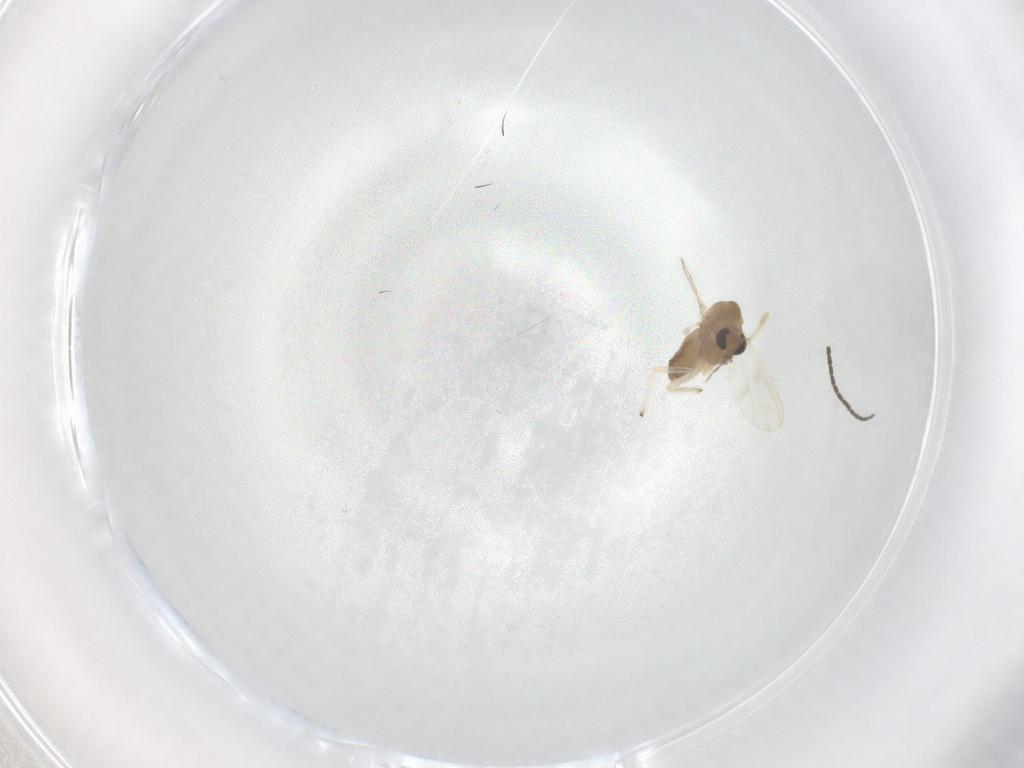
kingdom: Animalia
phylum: Arthropoda
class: Insecta
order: Diptera
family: Sciaridae
